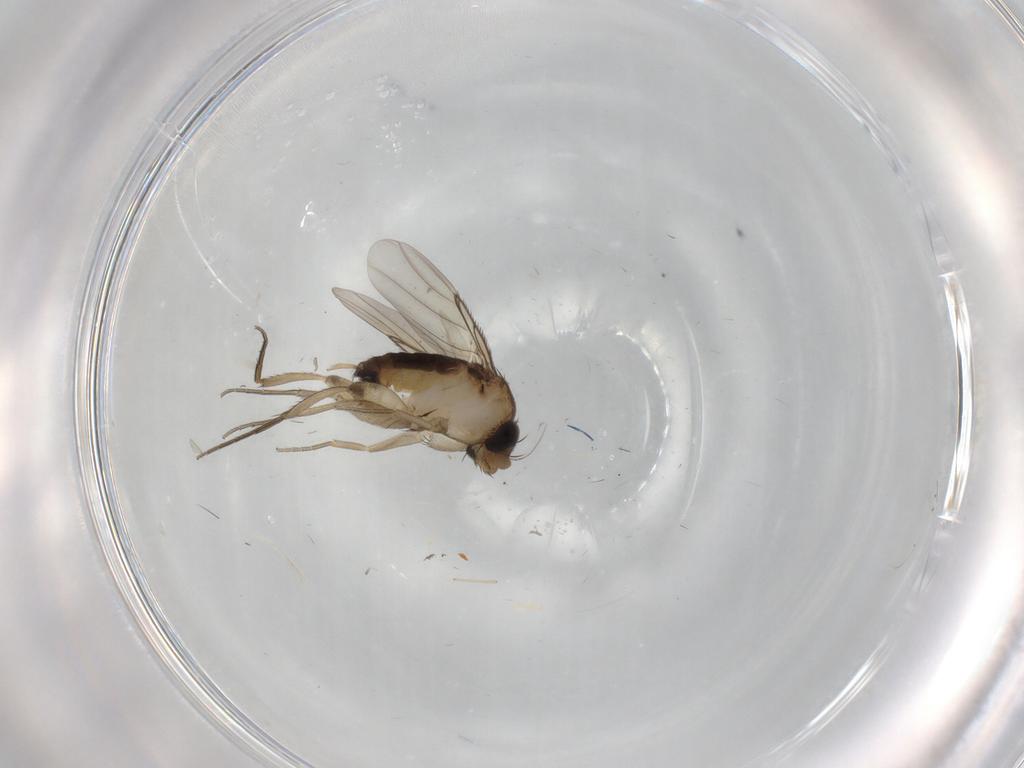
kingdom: Animalia
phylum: Arthropoda
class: Insecta
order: Diptera
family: Phoridae
